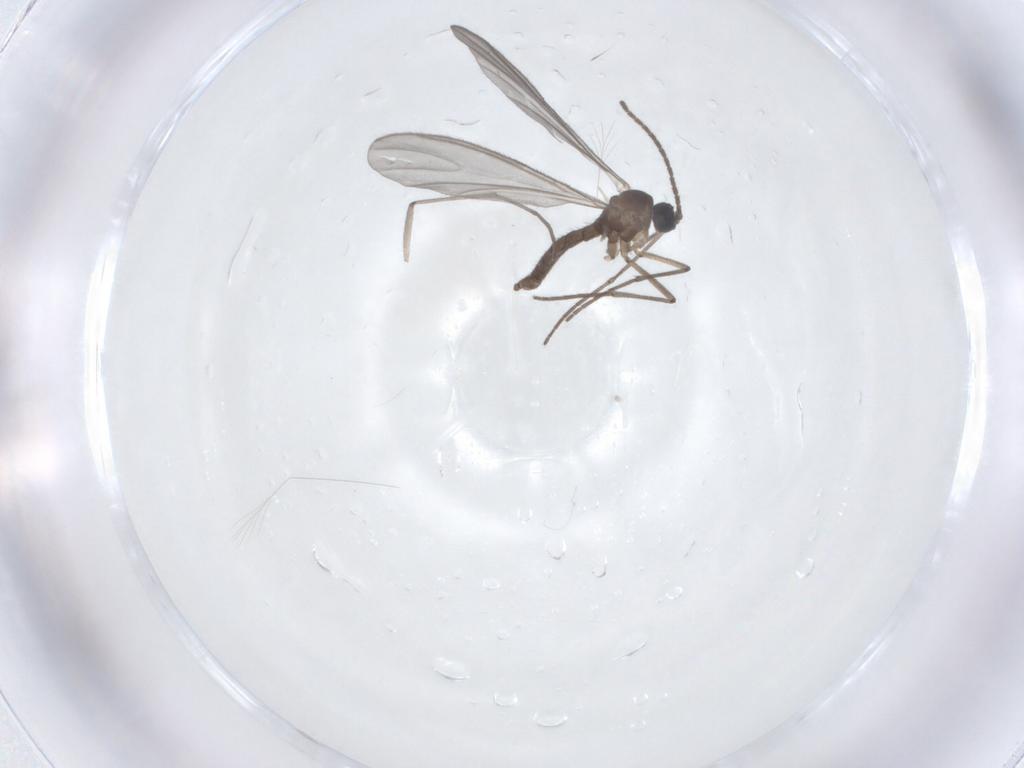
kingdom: Animalia
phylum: Arthropoda
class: Insecta
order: Diptera
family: Sciaridae
